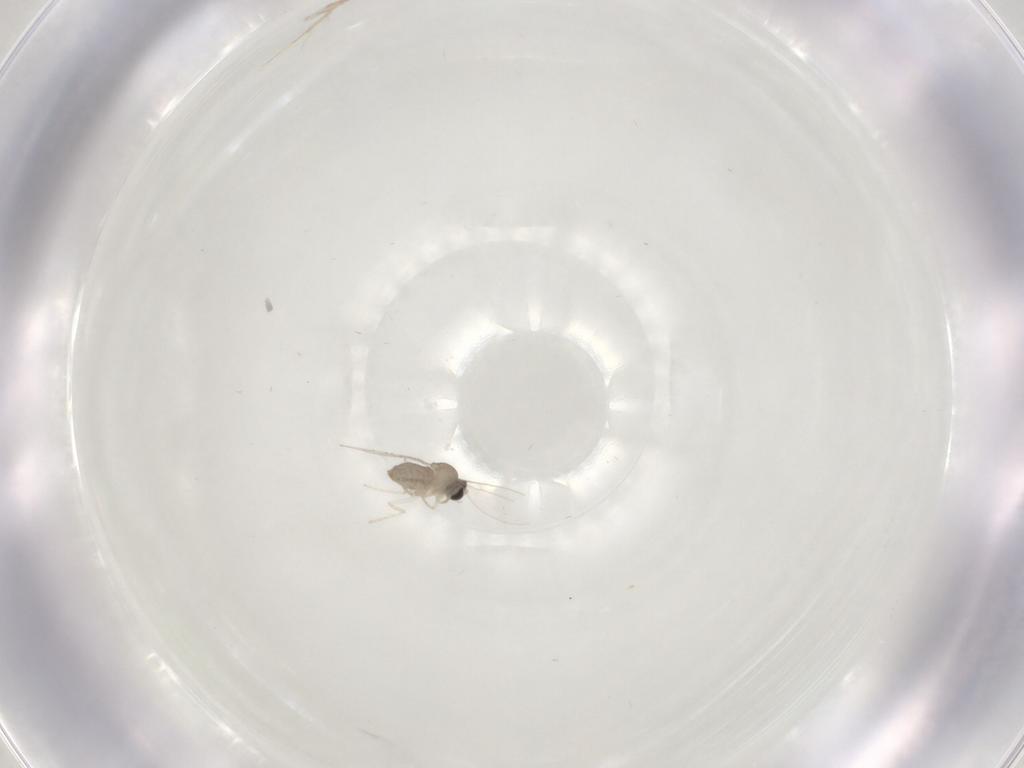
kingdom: Animalia
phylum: Arthropoda
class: Insecta
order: Diptera
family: Cecidomyiidae
